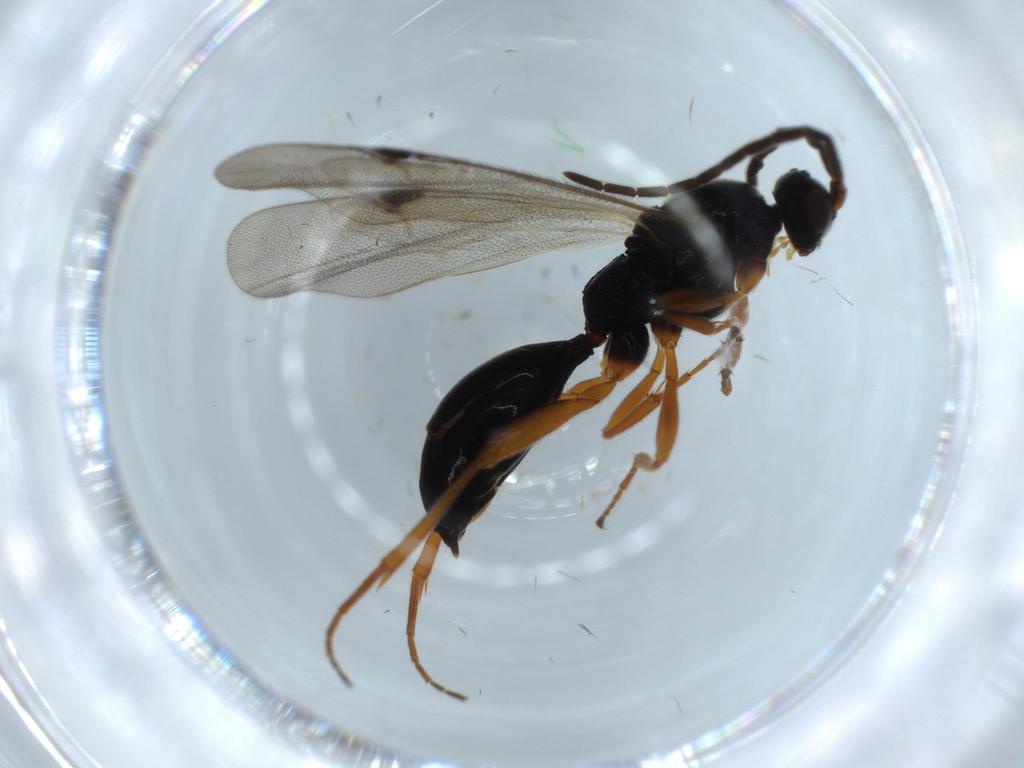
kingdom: Animalia
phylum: Arthropoda
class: Insecta
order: Hymenoptera
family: Proctotrupidae
